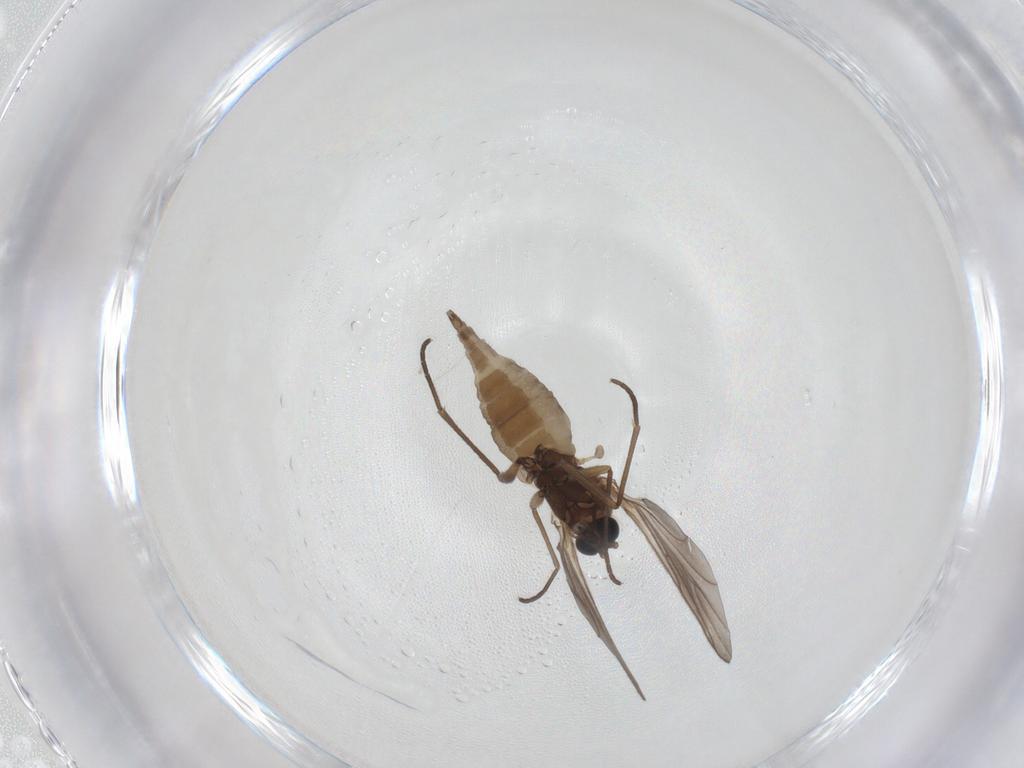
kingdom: Animalia
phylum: Arthropoda
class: Insecta
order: Diptera
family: Sciaridae
